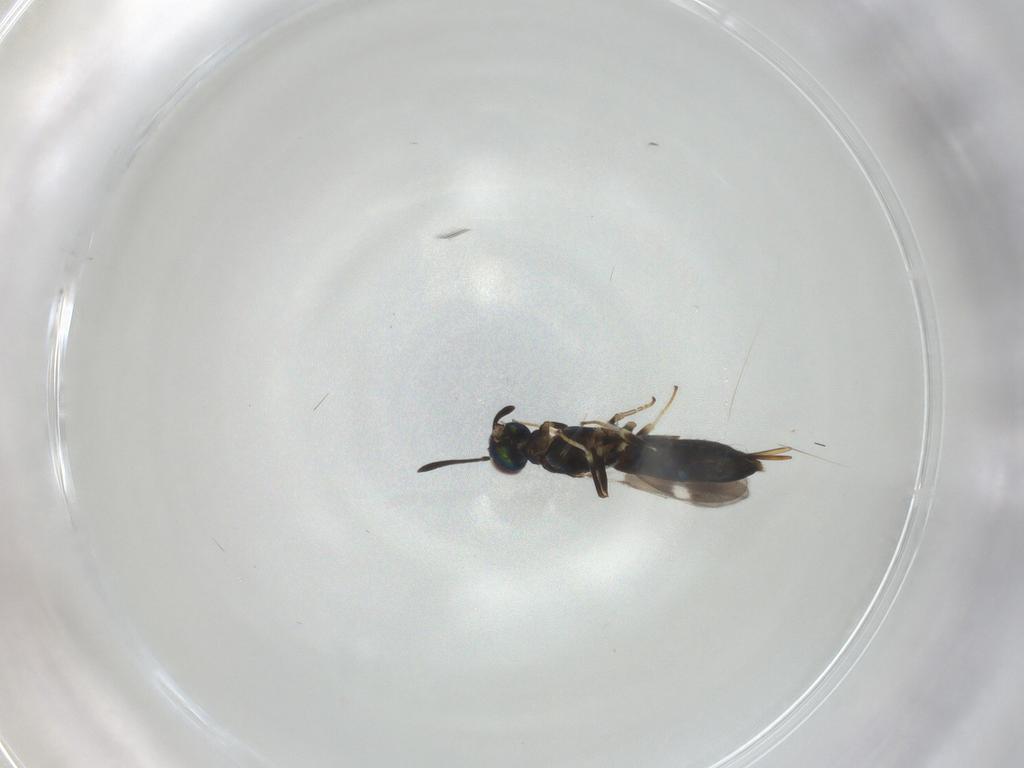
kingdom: Animalia
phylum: Arthropoda
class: Insecta
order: Hymenoptera
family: Eupelmidae
